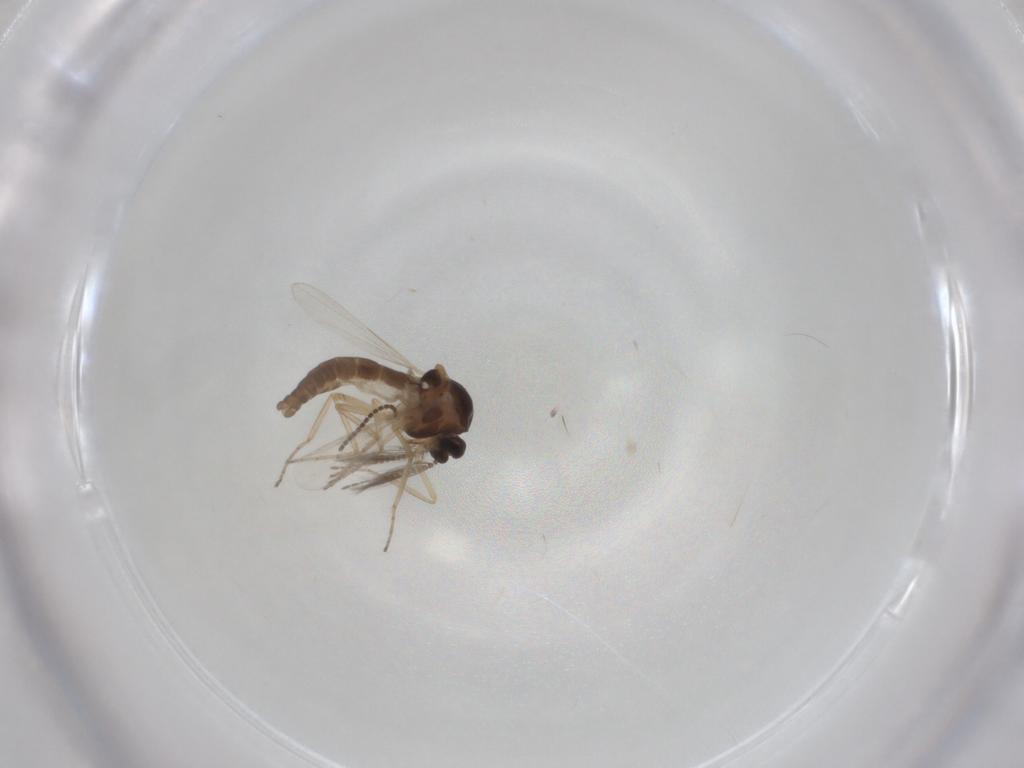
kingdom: Animalia
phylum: Arthropoda
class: Insecta
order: Diptera
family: Ceratopogonidae
